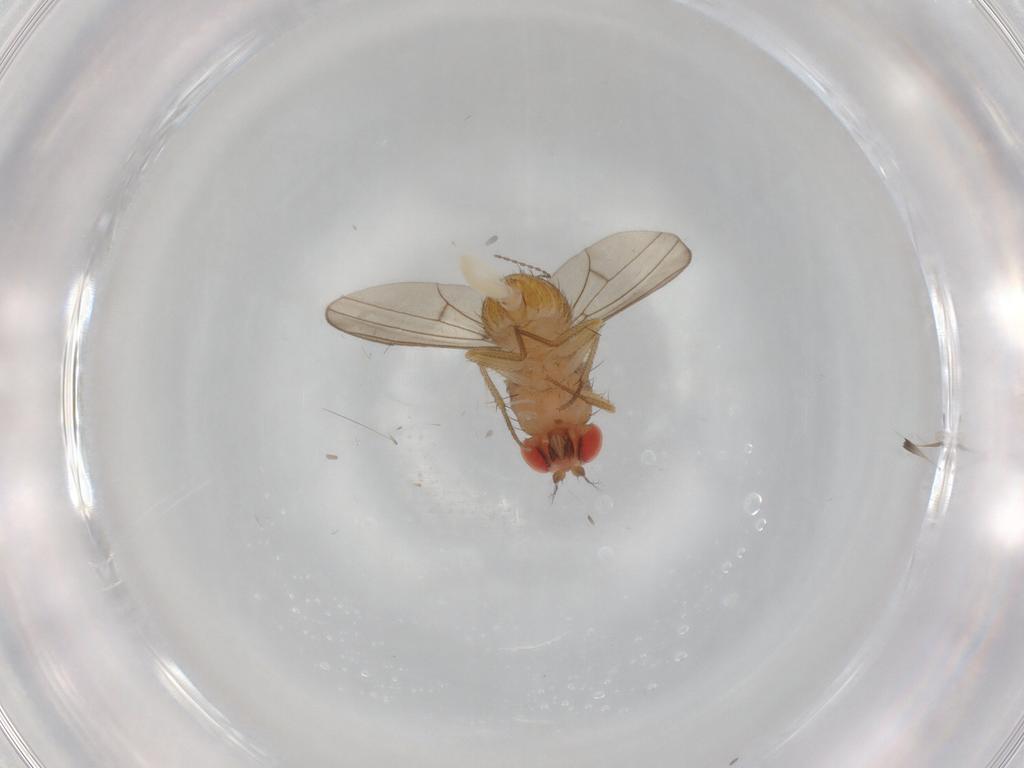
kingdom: Animalia
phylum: Arthropoda
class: Insecta
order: Diptera
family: Drosophilidae
